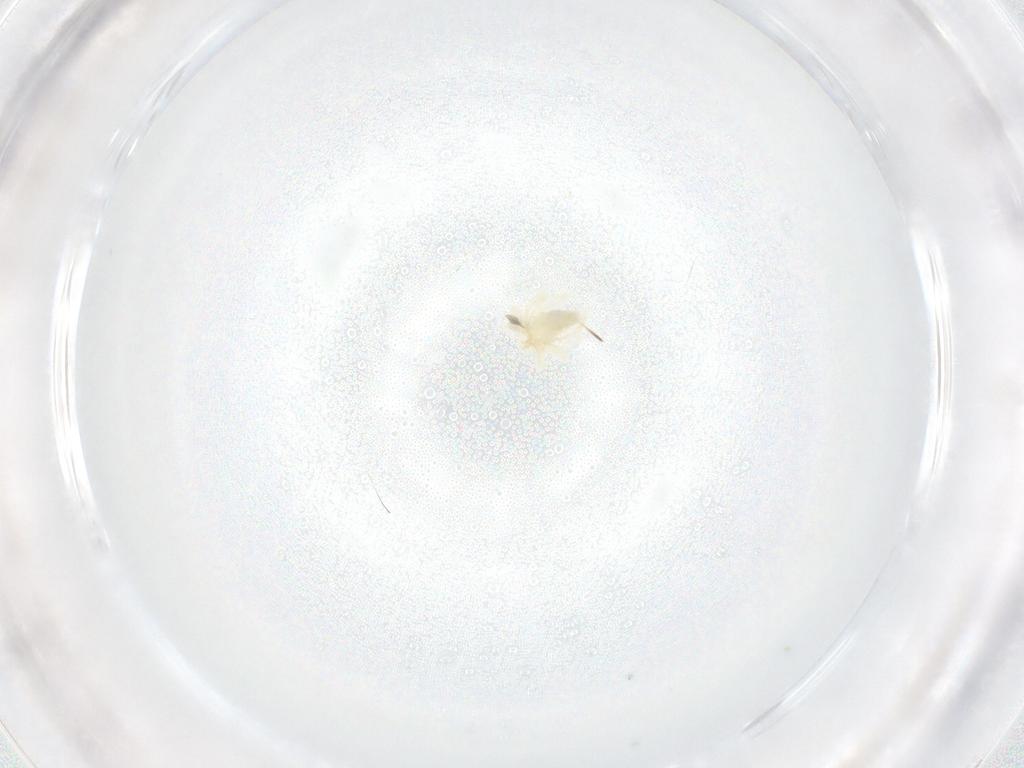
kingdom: Animalia
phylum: Arthropoda
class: Arachnida
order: Trombidiformes
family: Anystidae
